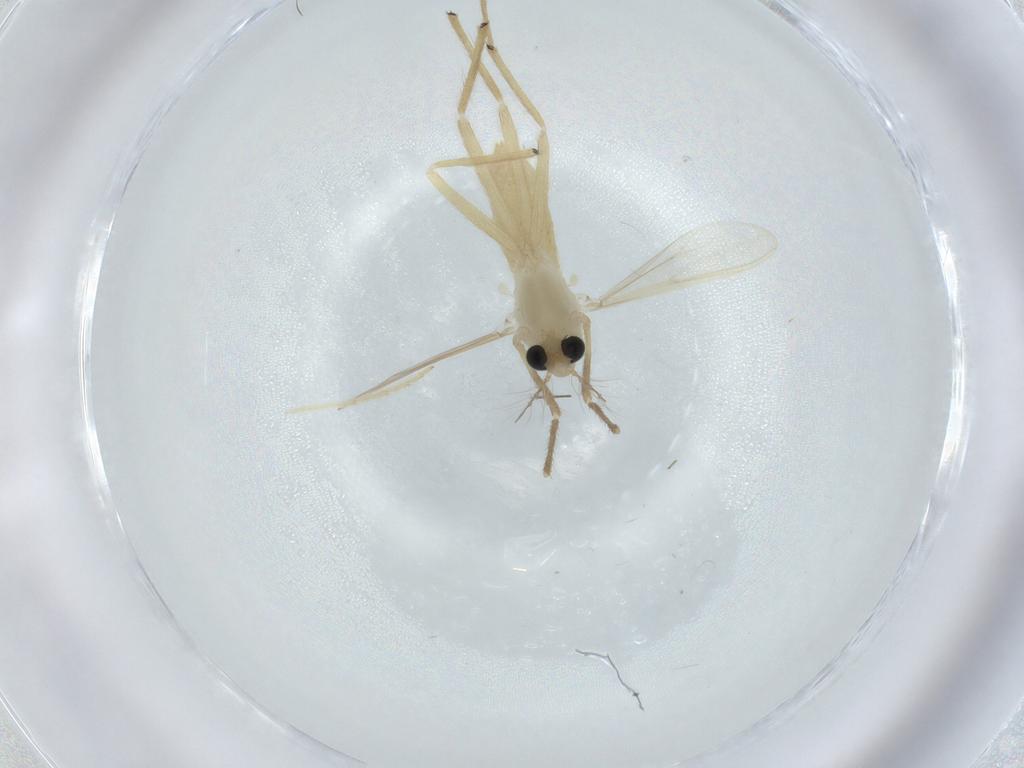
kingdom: Animalia
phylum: Arthropoda
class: Insecta
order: Diptera
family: Chironomidae
